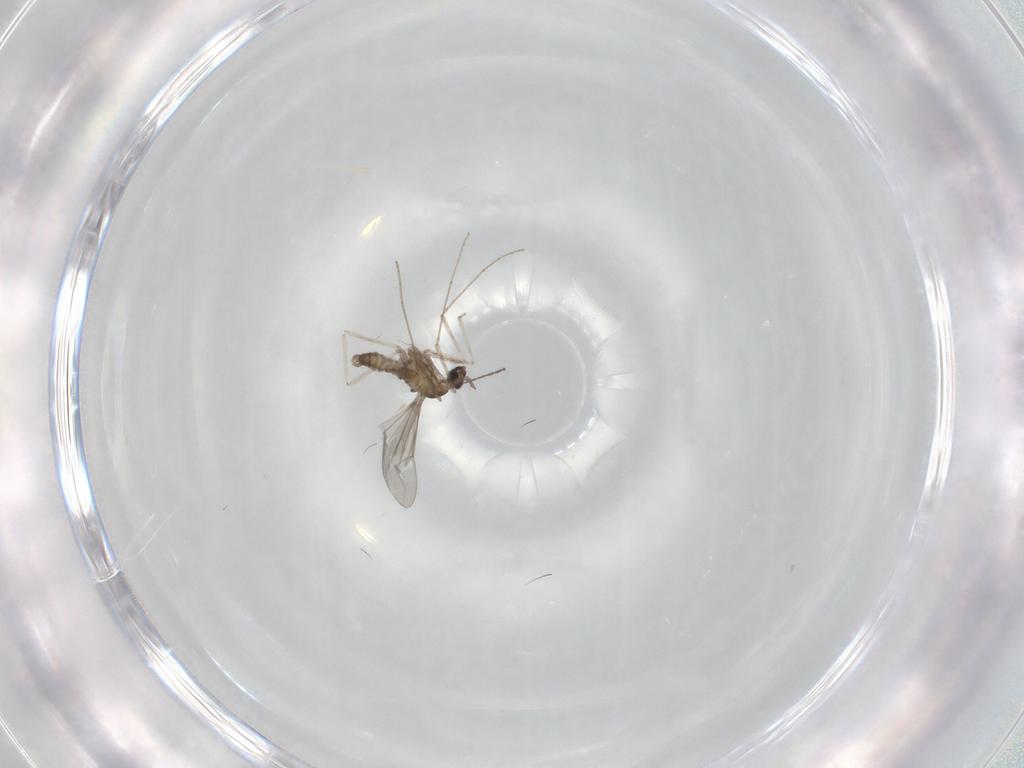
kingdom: Animalia
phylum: Arthropoda
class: Insecta
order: Diptera
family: Cecidomyiidae
